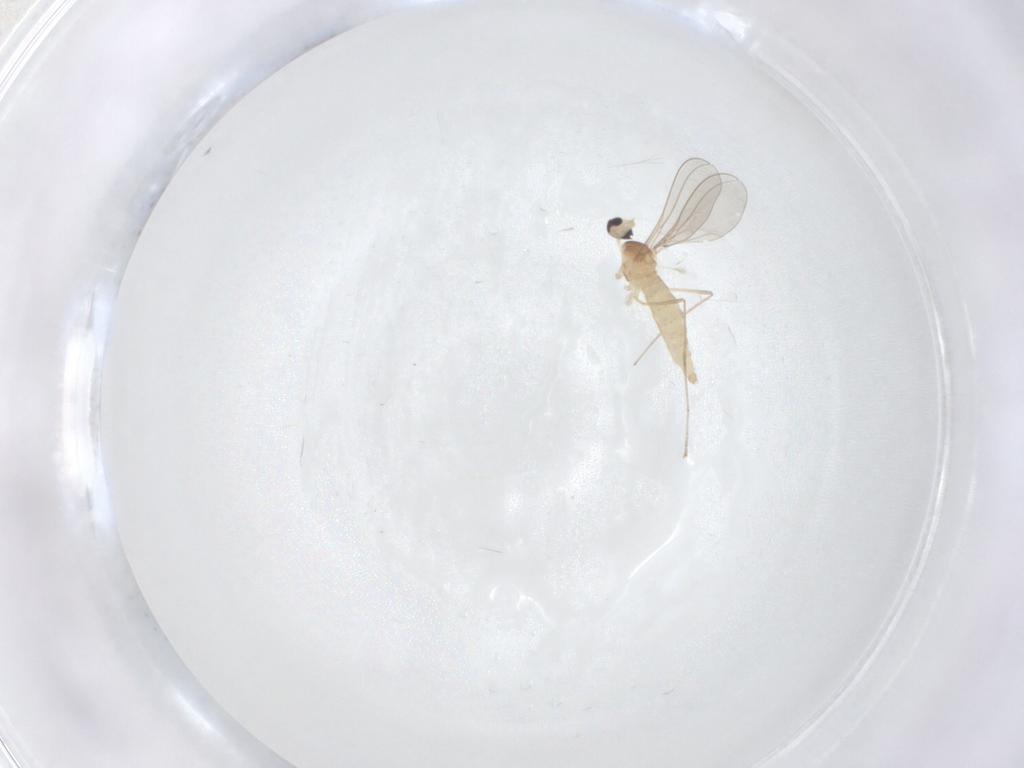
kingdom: Animalia
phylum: Arthropoda
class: Insecta
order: Diptera
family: Cecidomyiidae
